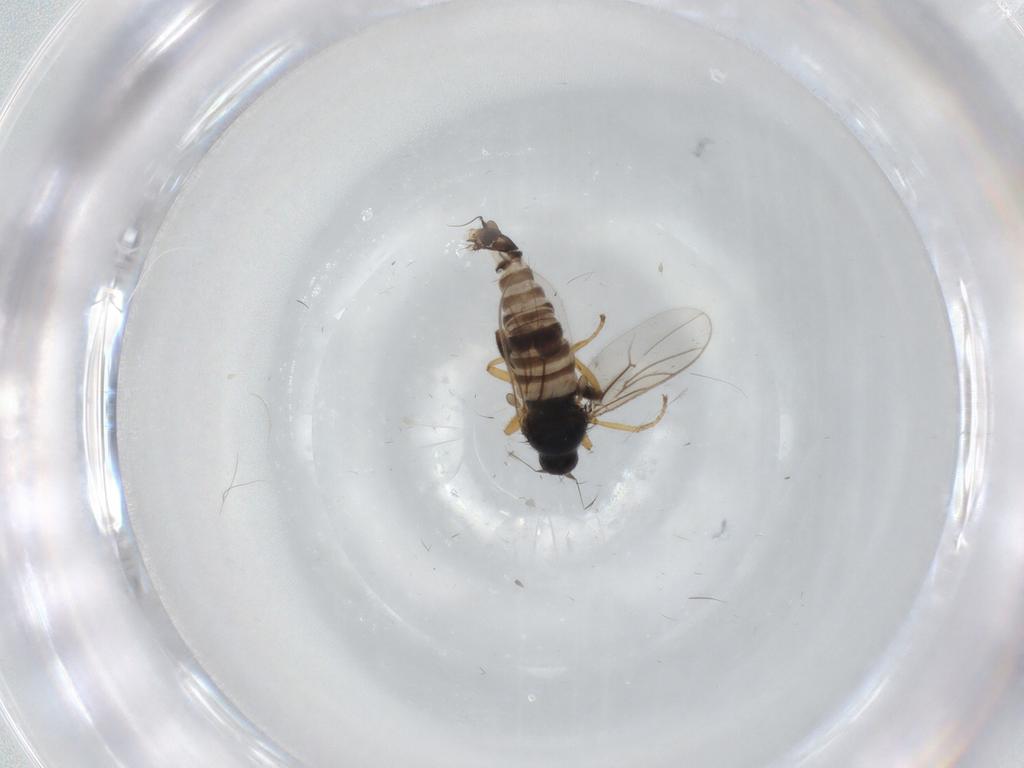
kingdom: Animalia
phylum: Arthropoda
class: Insecta
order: Diptera
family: Hybotidae
